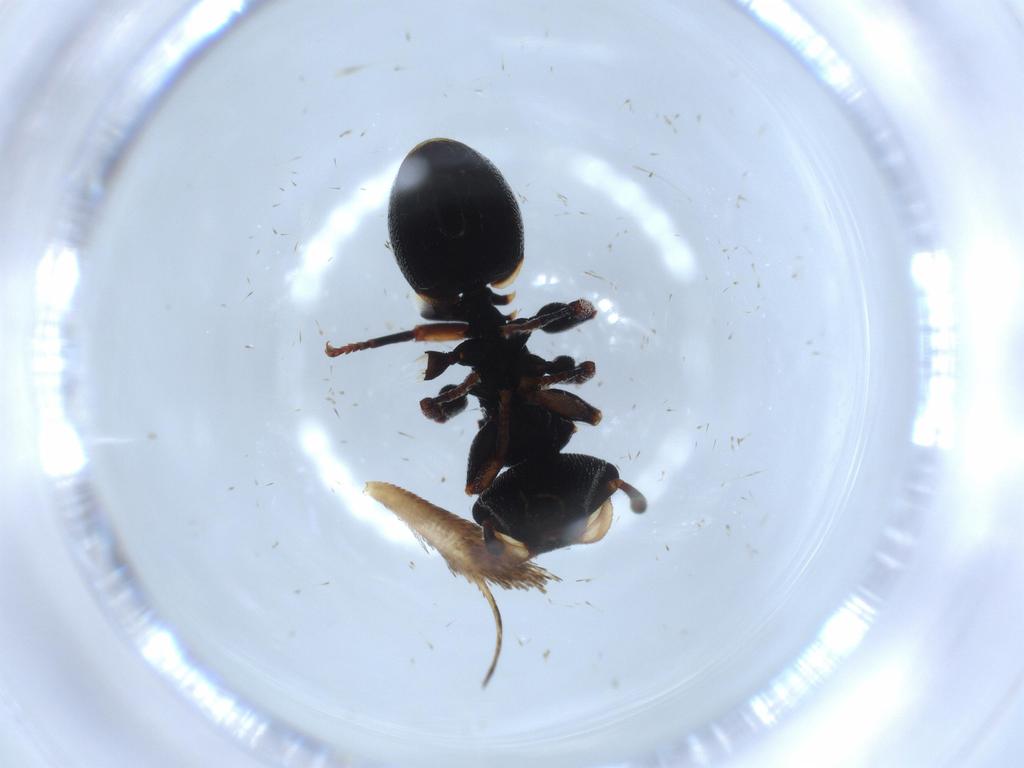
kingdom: Animalia
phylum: Arthropoda
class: Insecta
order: Hymenoptera
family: Formicidae
